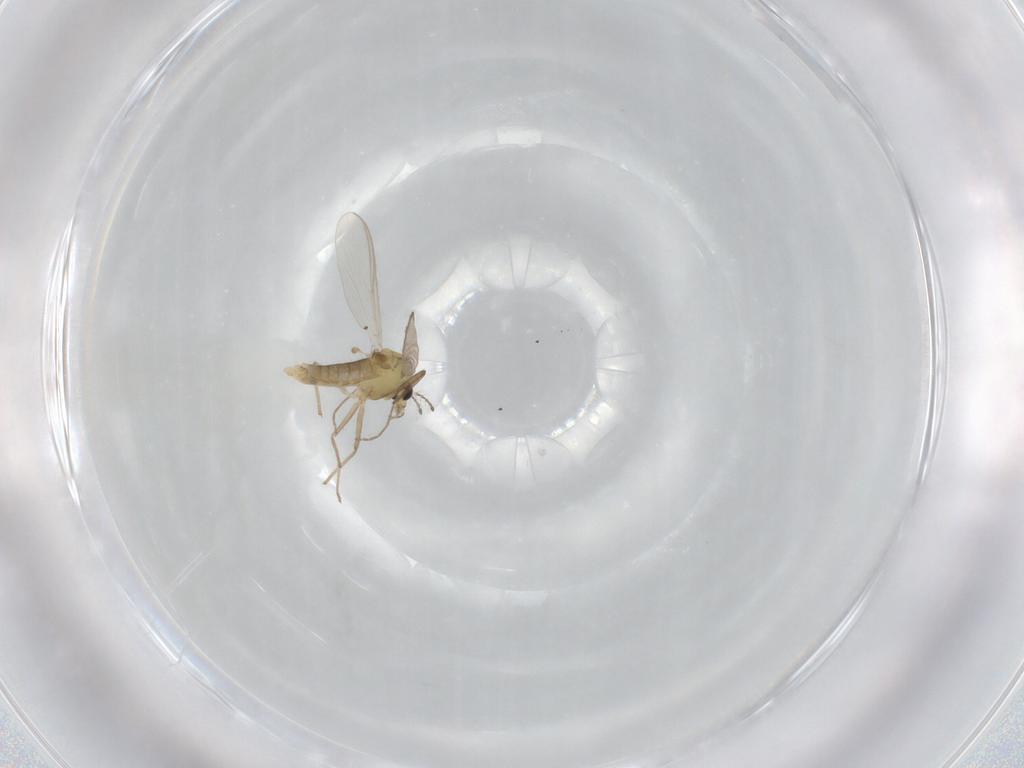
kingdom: Animalia
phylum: Arthropoda
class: Insecta
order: Diptera
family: Chironomidae
